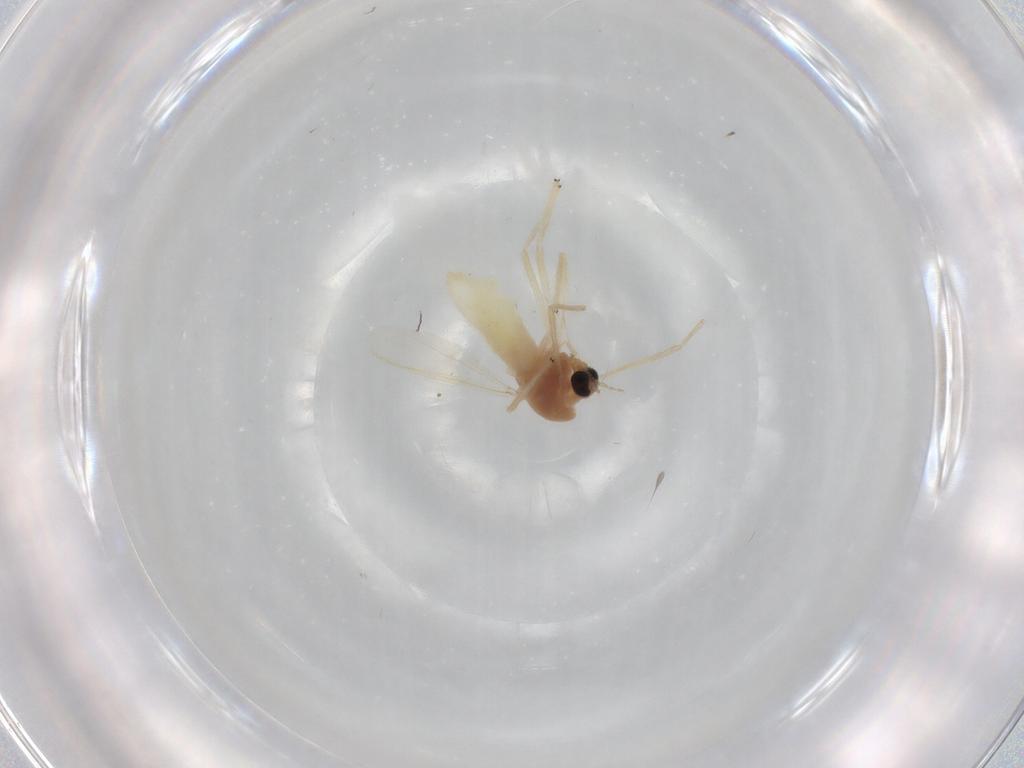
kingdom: Animalia
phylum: Arthropoda
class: Insecta
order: Diptera
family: Chironomidae
